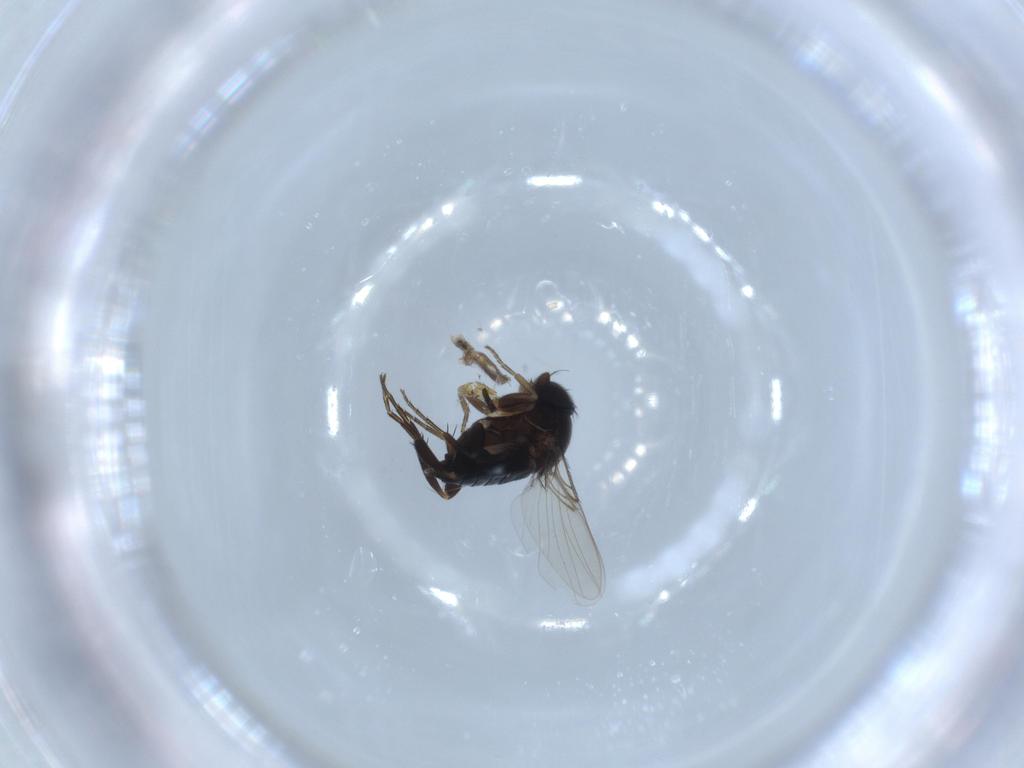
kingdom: Animalia
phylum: Arthropoda
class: Insecta
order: Diptera
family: Phoridae
